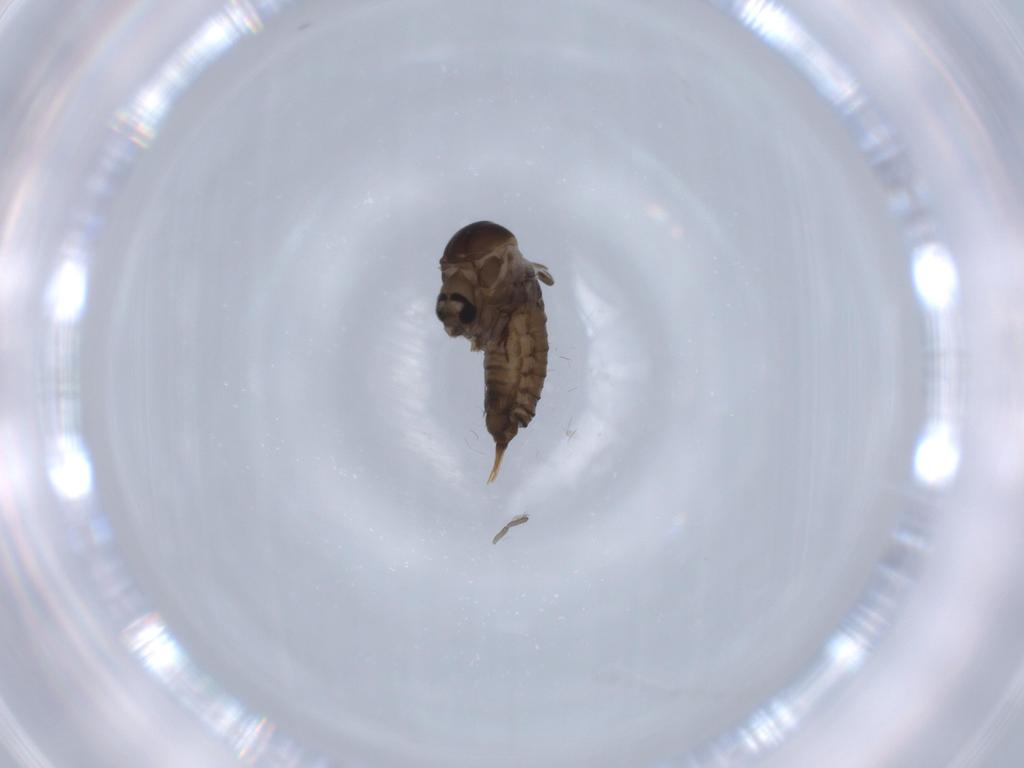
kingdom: Animalia
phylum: Arthropoda
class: Insecta
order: Diptera
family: Psychodidae
